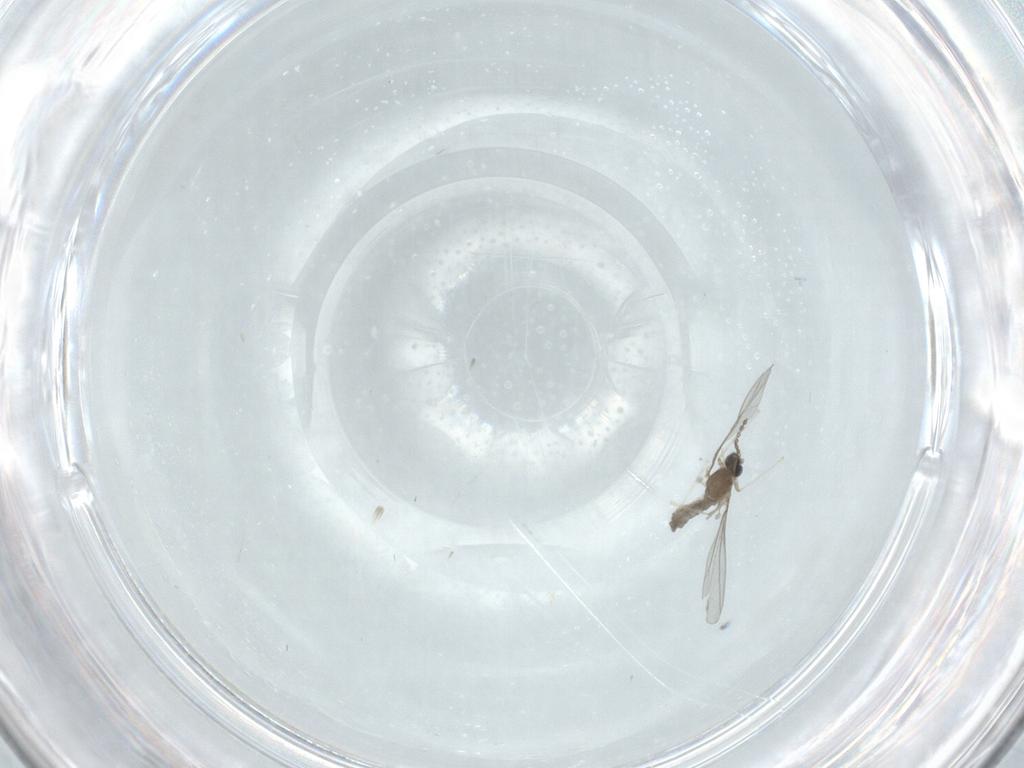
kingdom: Animalia
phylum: Arthropoda
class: Insecta
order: Diptera
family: Cecidomyiidae
